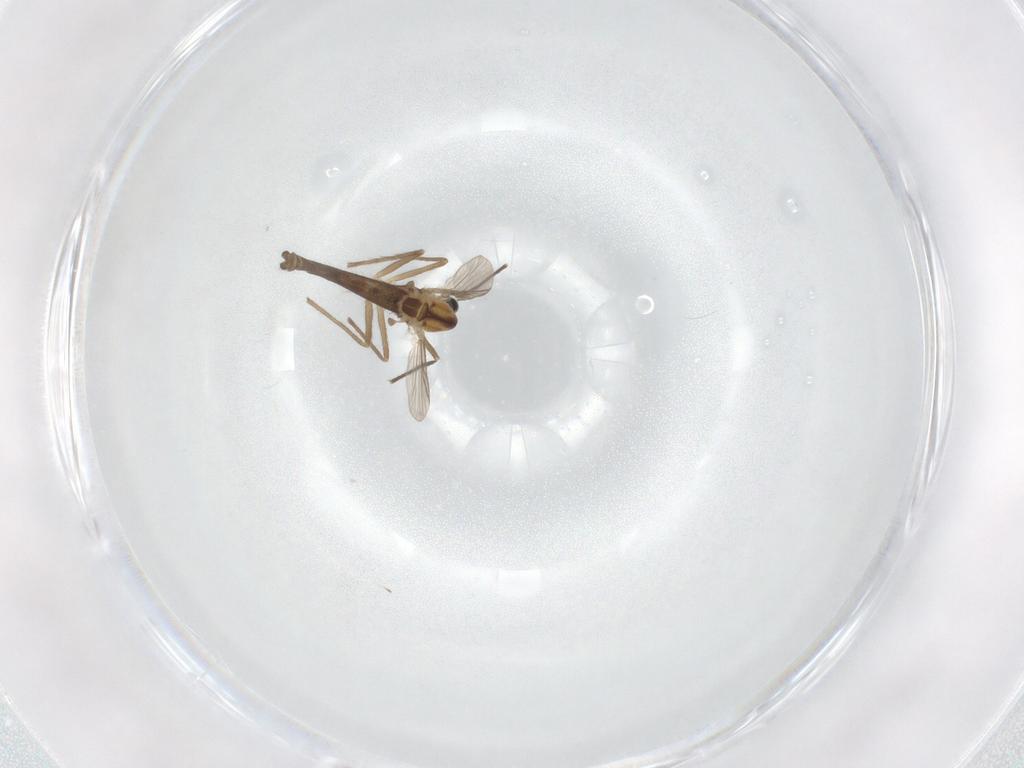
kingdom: Animalia
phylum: Arthropoda
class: Insecta
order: Diptera
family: Chironomidae
